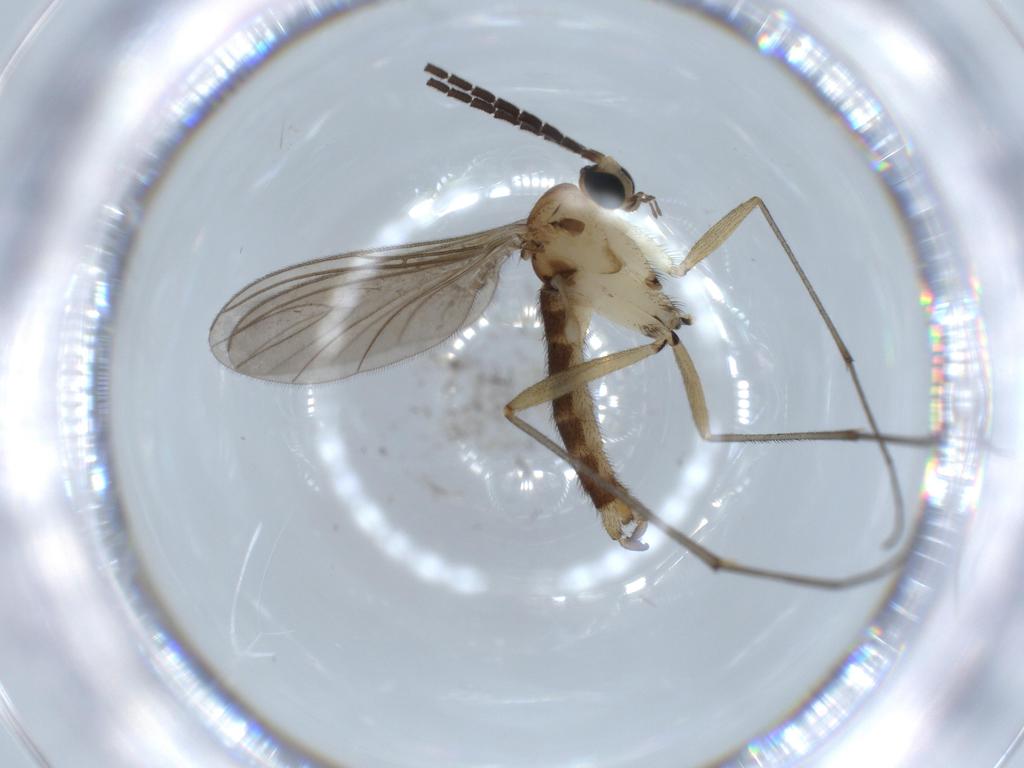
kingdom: Animalia
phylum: Arthropoda
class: Insecta
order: Diptera
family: Sciaridae
